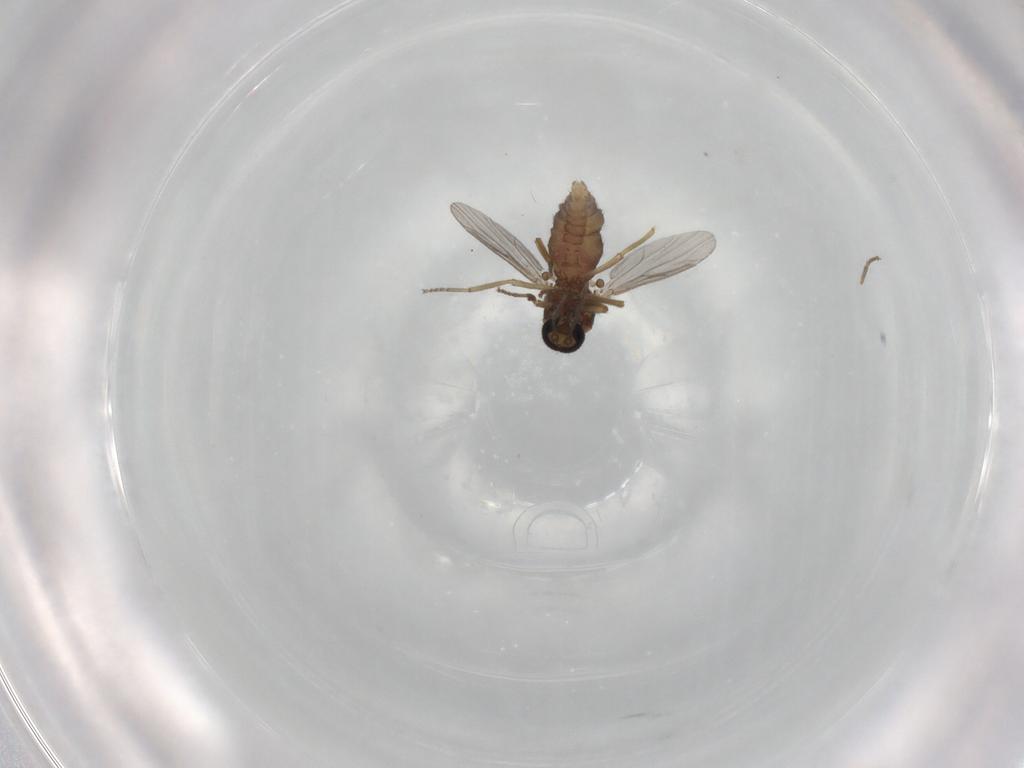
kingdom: Animalia
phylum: Arthropoda
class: Insecta
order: Diptera
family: Ceratopogonidae
